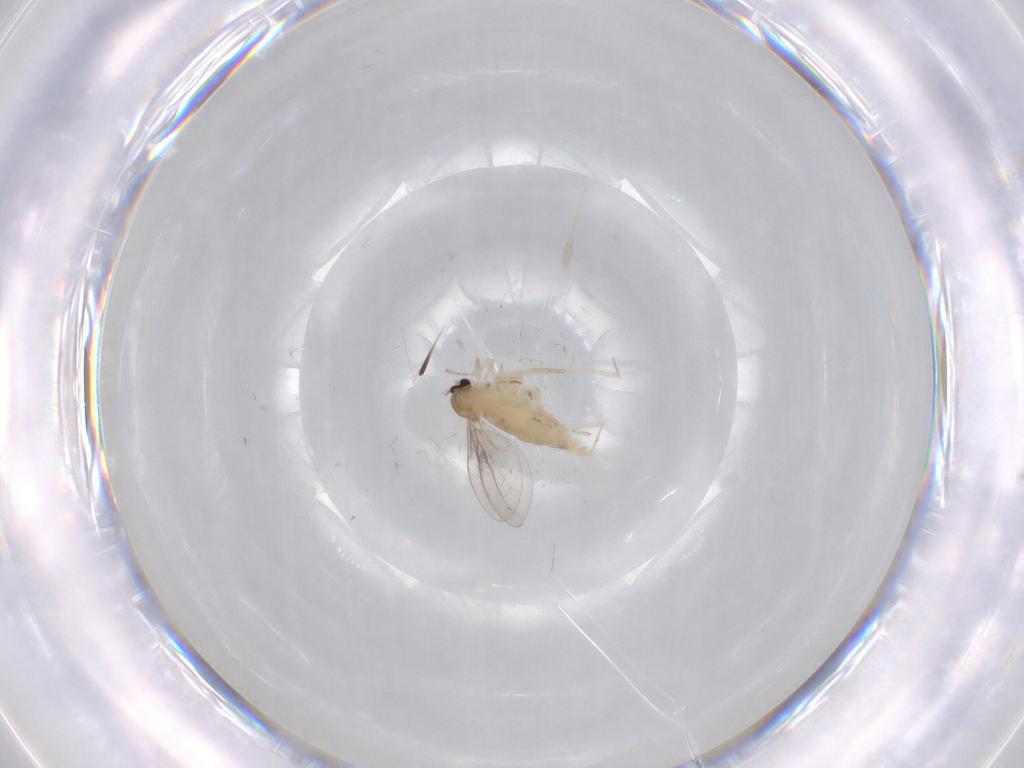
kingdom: Animalia
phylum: Arthropoda
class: Insecta
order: Diptera
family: Cecidomyiidae
